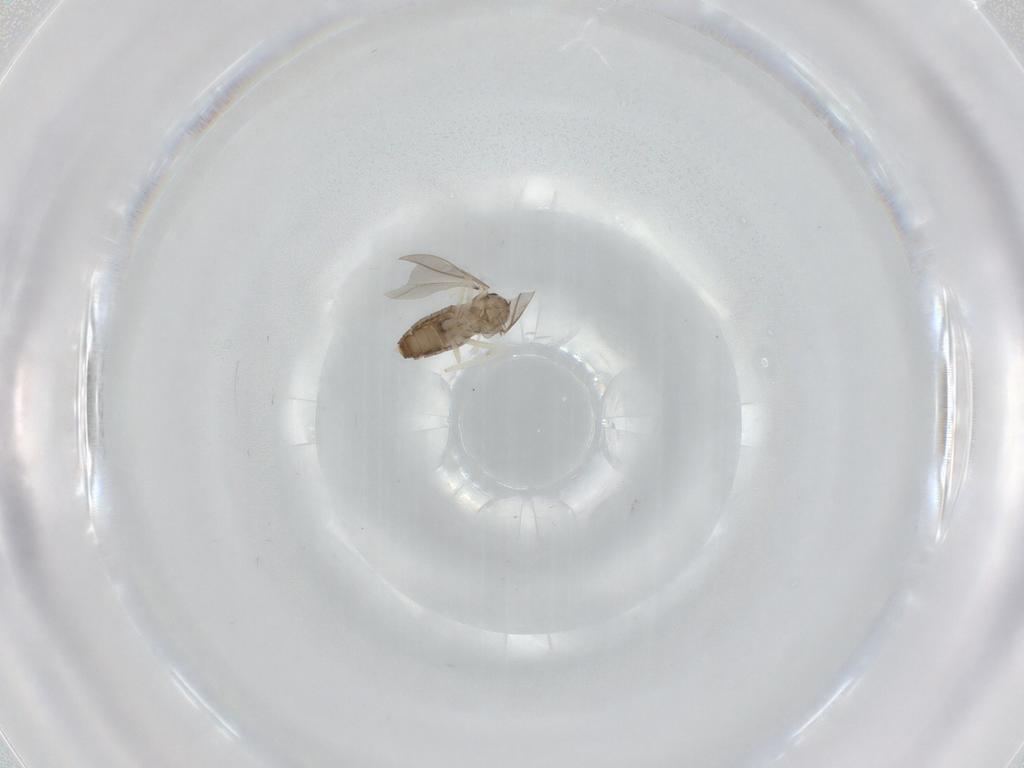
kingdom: Animalia
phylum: Arthropoda
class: Insecta
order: Diptera
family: Cecidomyiidae
